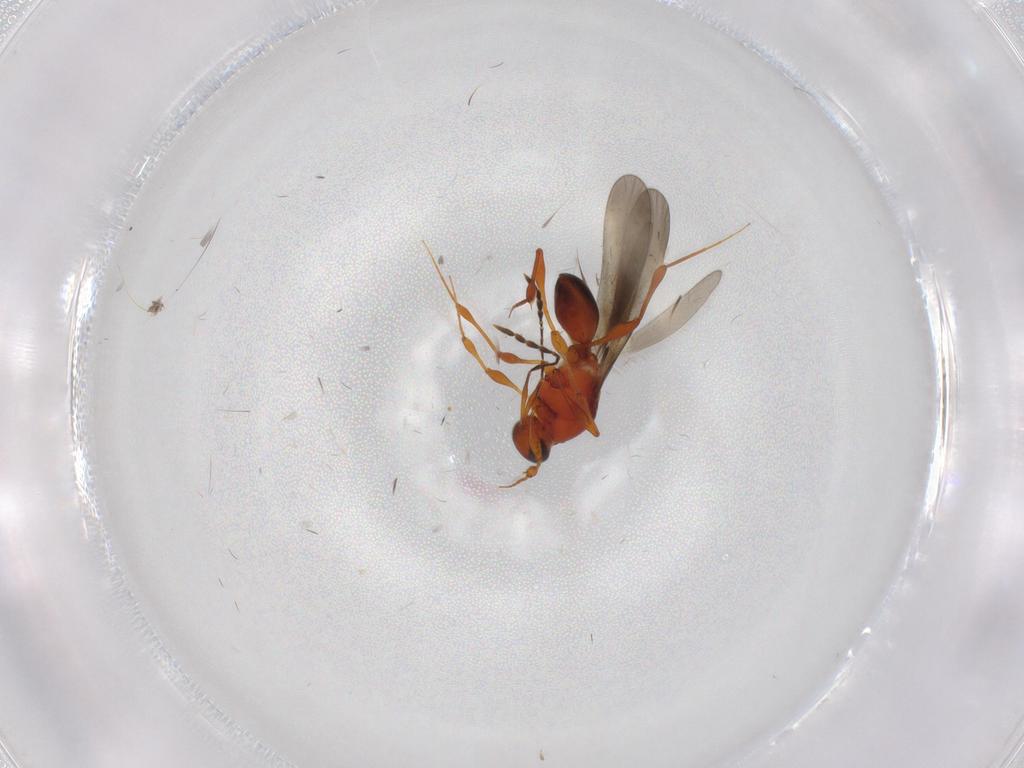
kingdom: Animalia
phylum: Arthropoda
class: Insecta
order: Hymenoptera
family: Platygastridae
